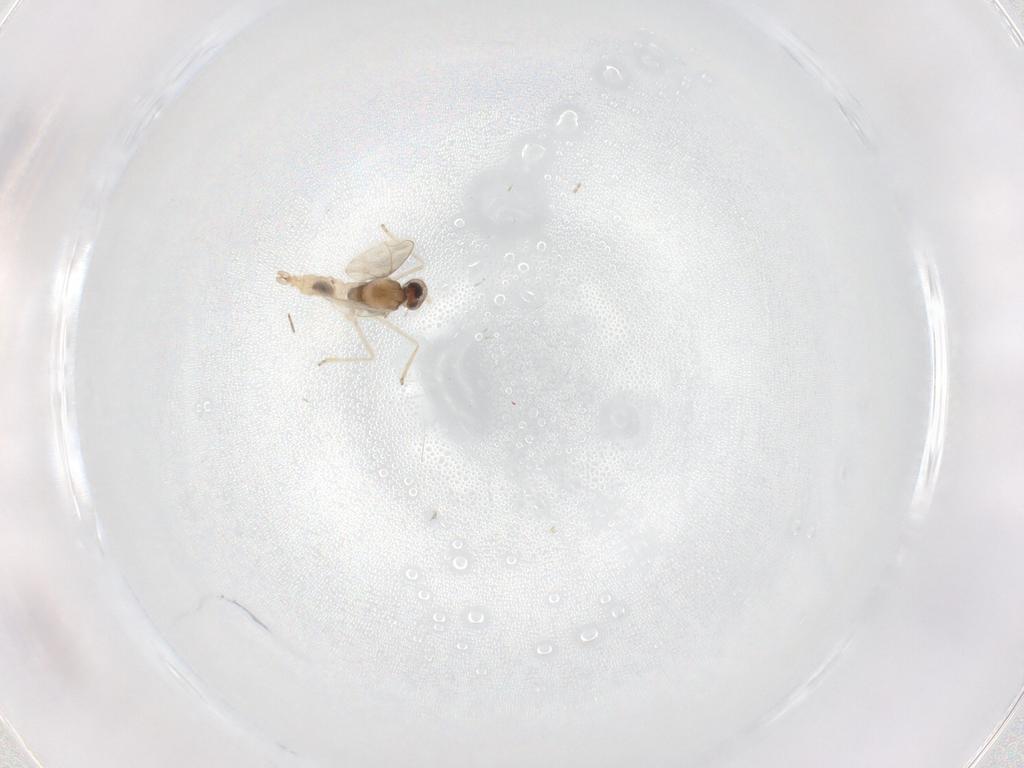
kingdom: Animalia
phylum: Arthropoda
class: Insecta
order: Diptera
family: Cecidomyiidae
